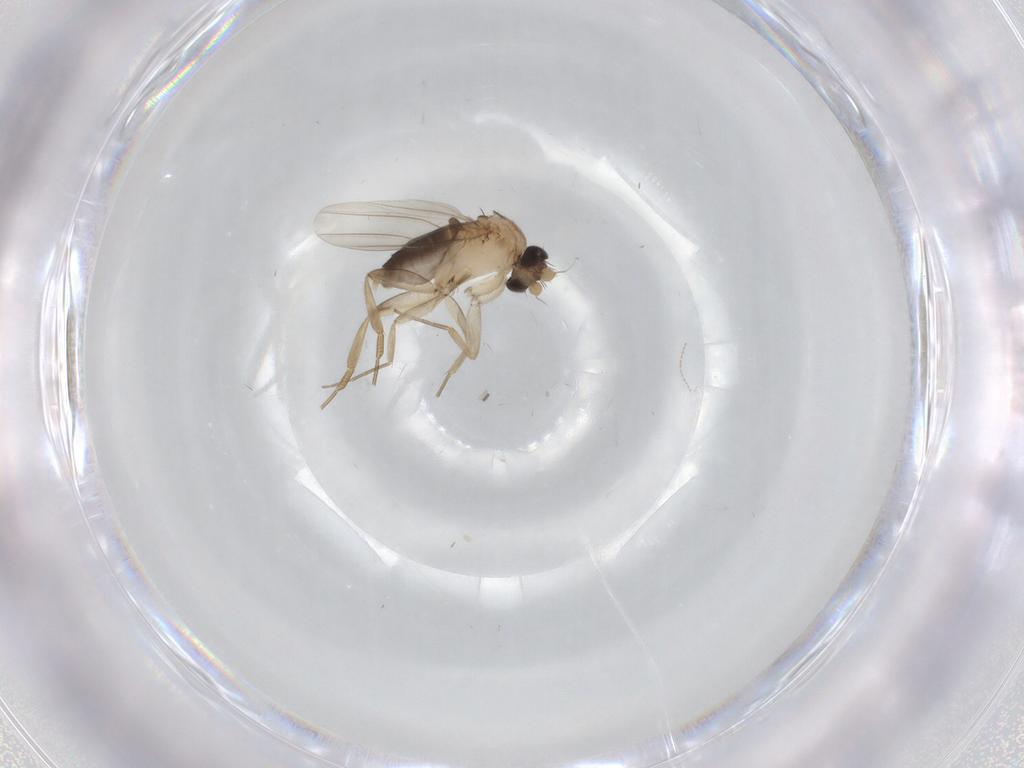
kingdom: Animalia
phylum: Arthropoda
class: Insecta
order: Diptera
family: Phoridae
